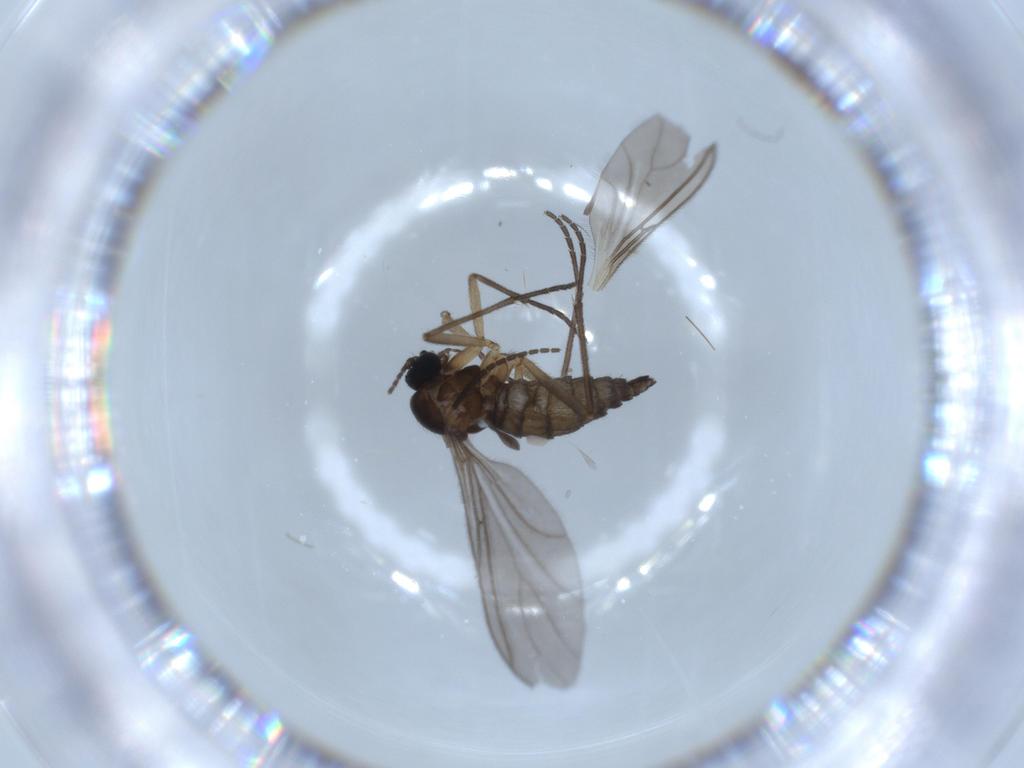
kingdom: Animalia
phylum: Arthropoda
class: Insecta
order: Diptera
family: Sciaridae
